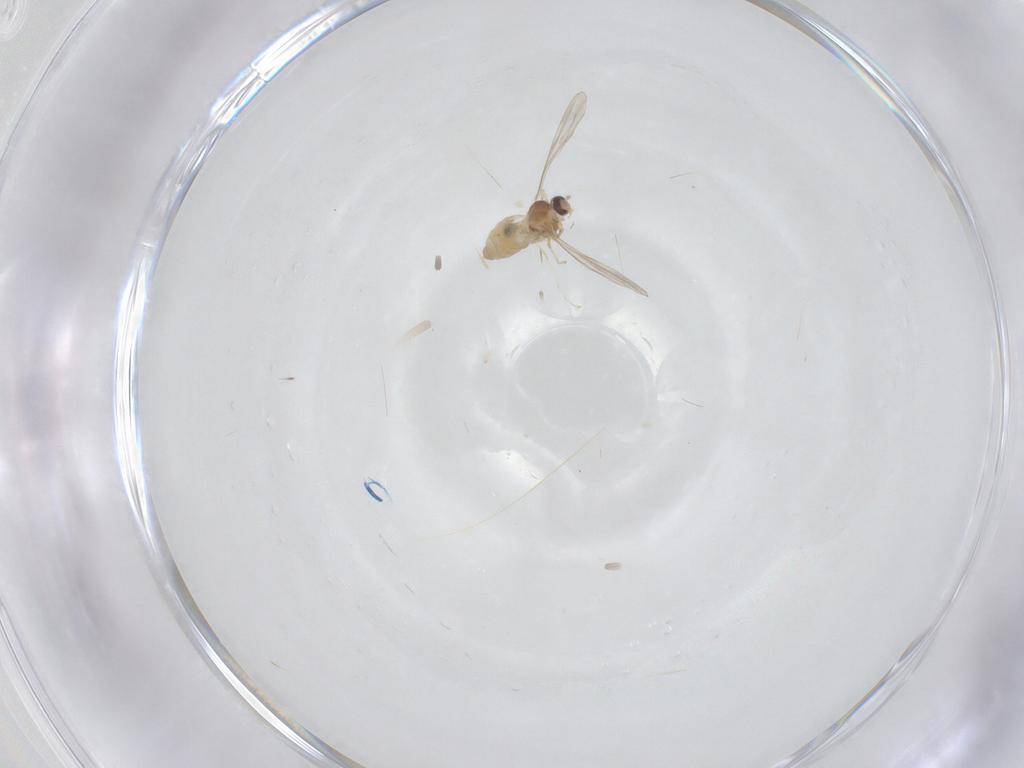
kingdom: Animalia
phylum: Arthropoda
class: Insecta
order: Diptera
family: Cecidomyiidae
